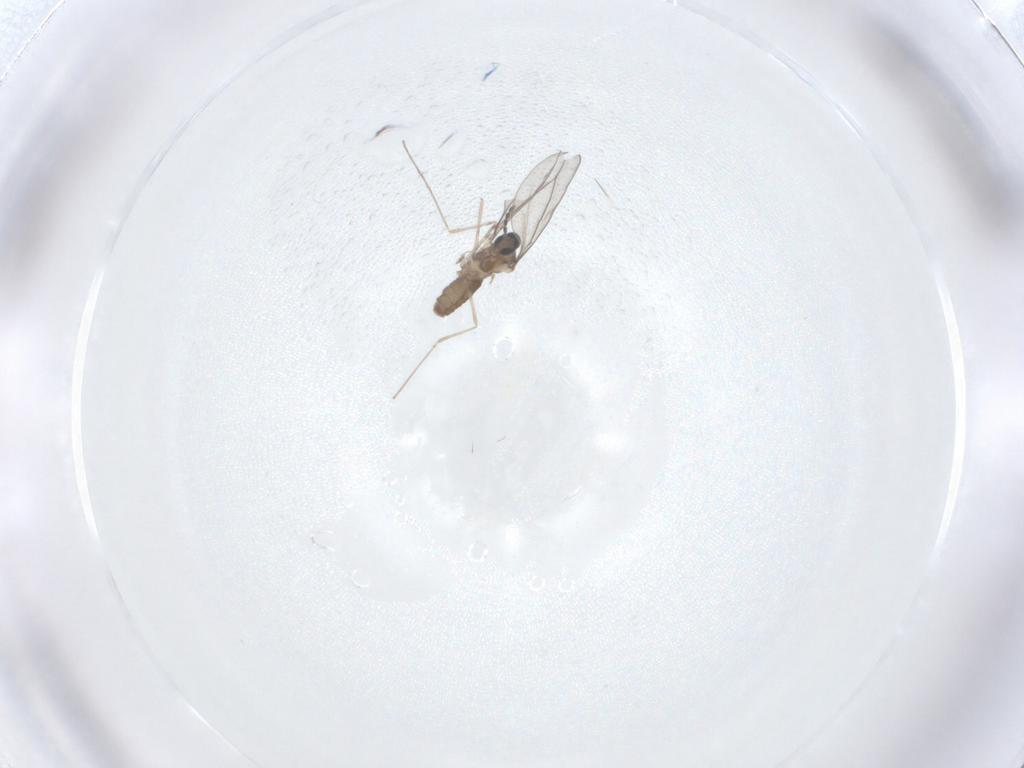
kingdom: Animalia
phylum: Arthropoda
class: Insecta
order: Diptera
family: Cecidomyiidae
